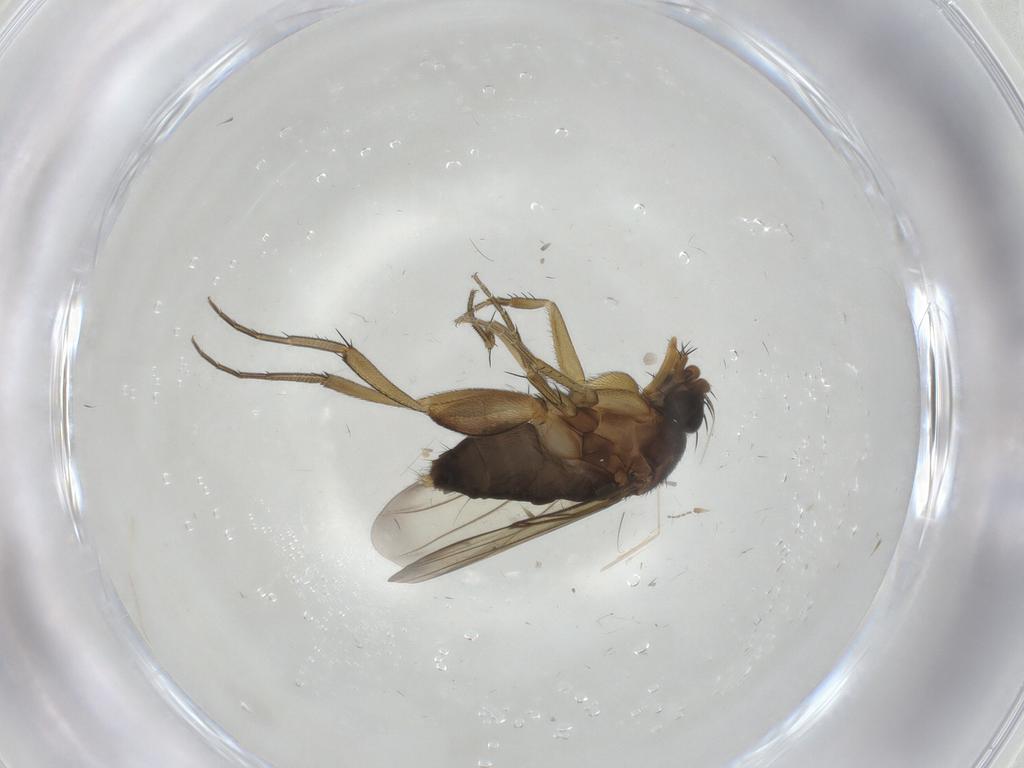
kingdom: Animalia
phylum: Arthropoda
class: Insecta
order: Diptera
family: Phoridae
